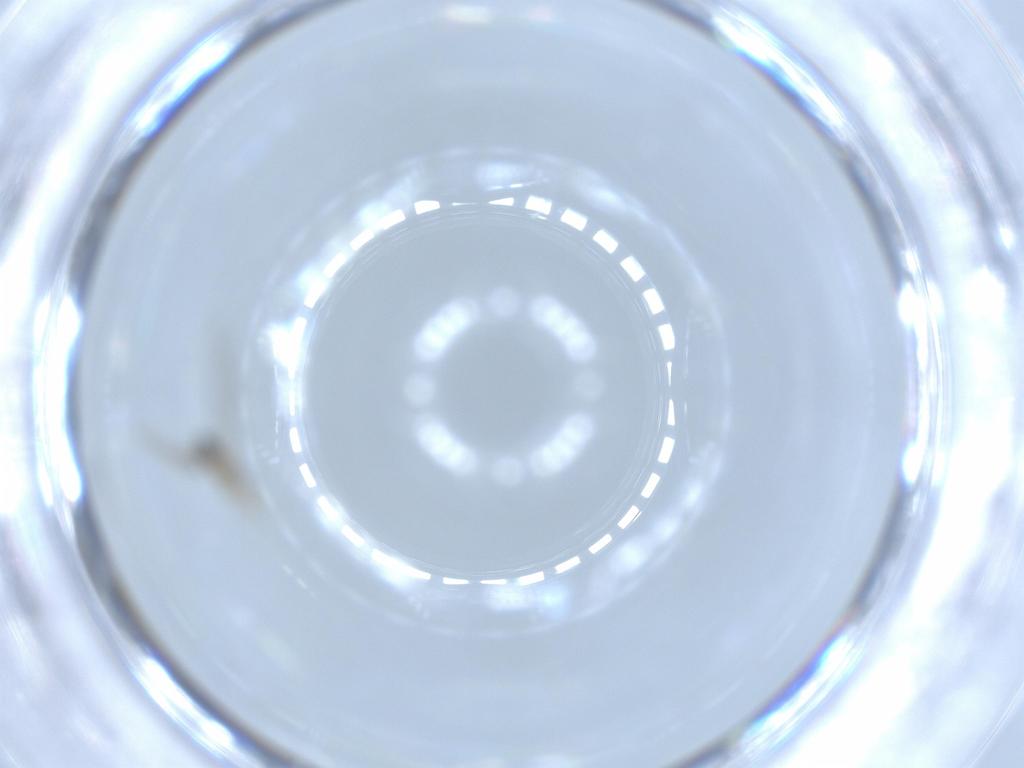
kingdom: Animalia
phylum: Arthropoda
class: Insecta
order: Diptera
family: Cecidomyiidae
